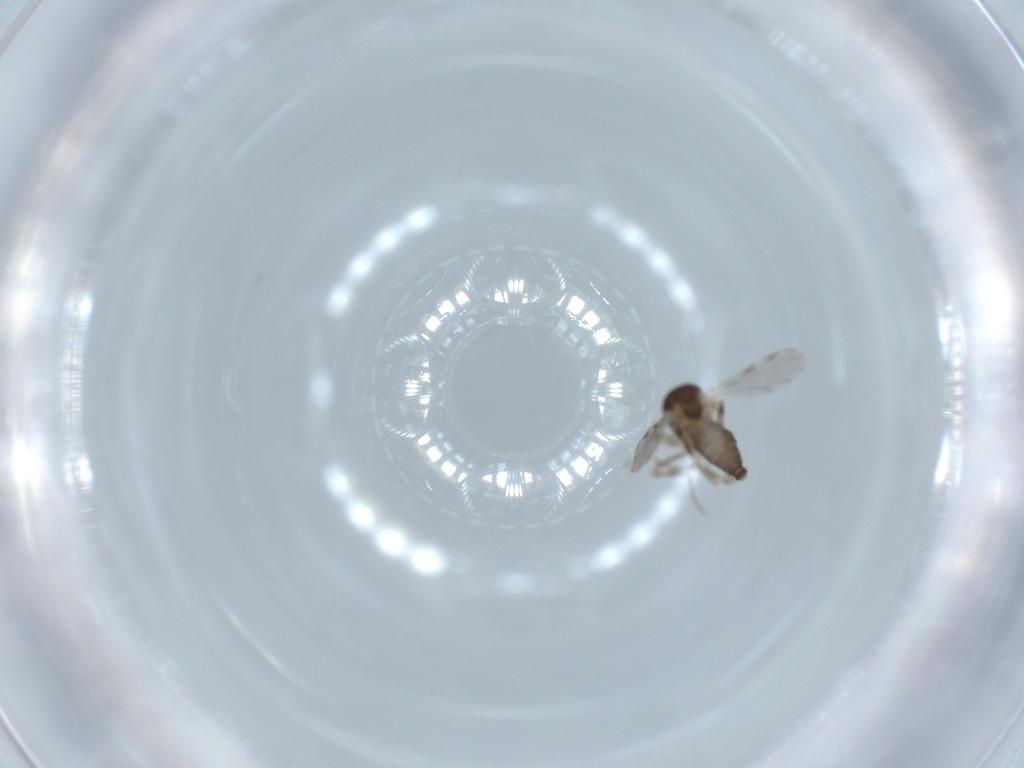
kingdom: Animalia
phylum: Arthropoda
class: Insecta
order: Diptera
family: Ceratopogonidae
